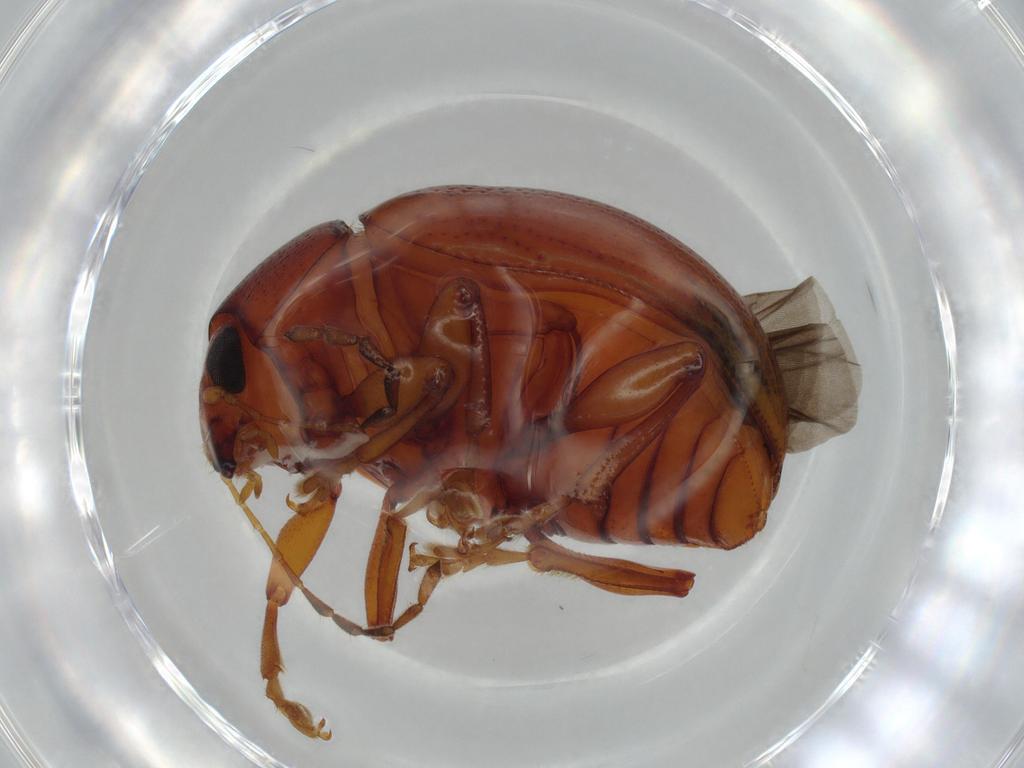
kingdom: Animalia
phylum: Arthropoda
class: Insecta
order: Coleoptera
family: Chrysomelidae
